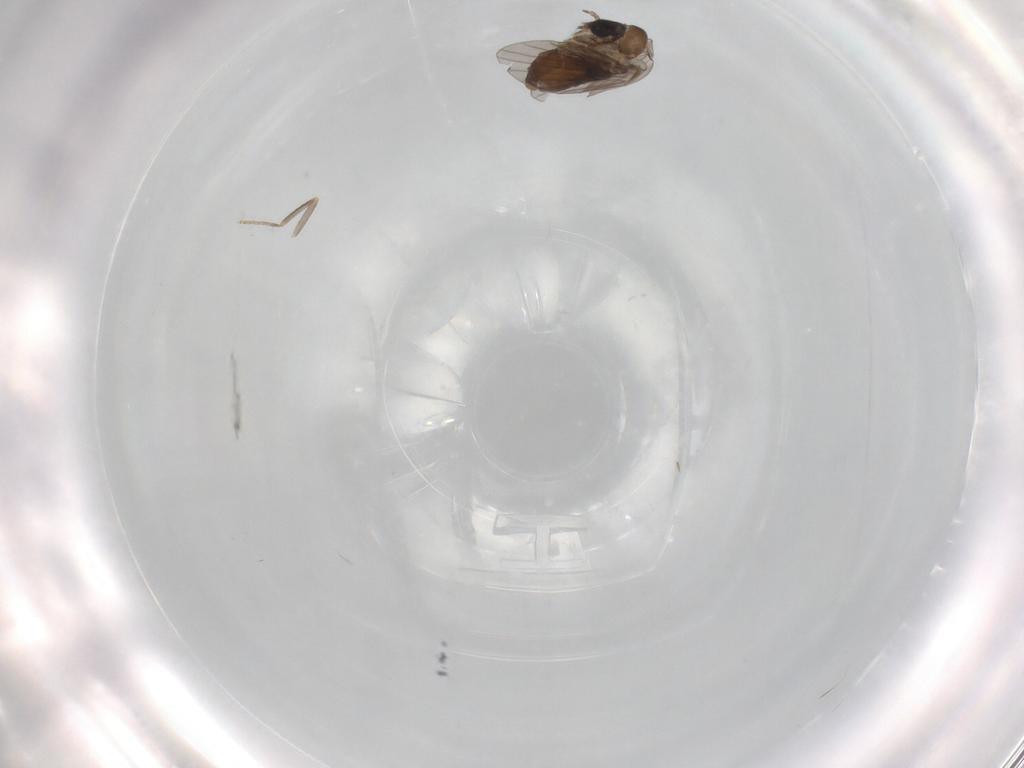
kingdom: Animalia
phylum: Arthropoda
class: Insecta
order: Diptera
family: Ceratopogonidae
